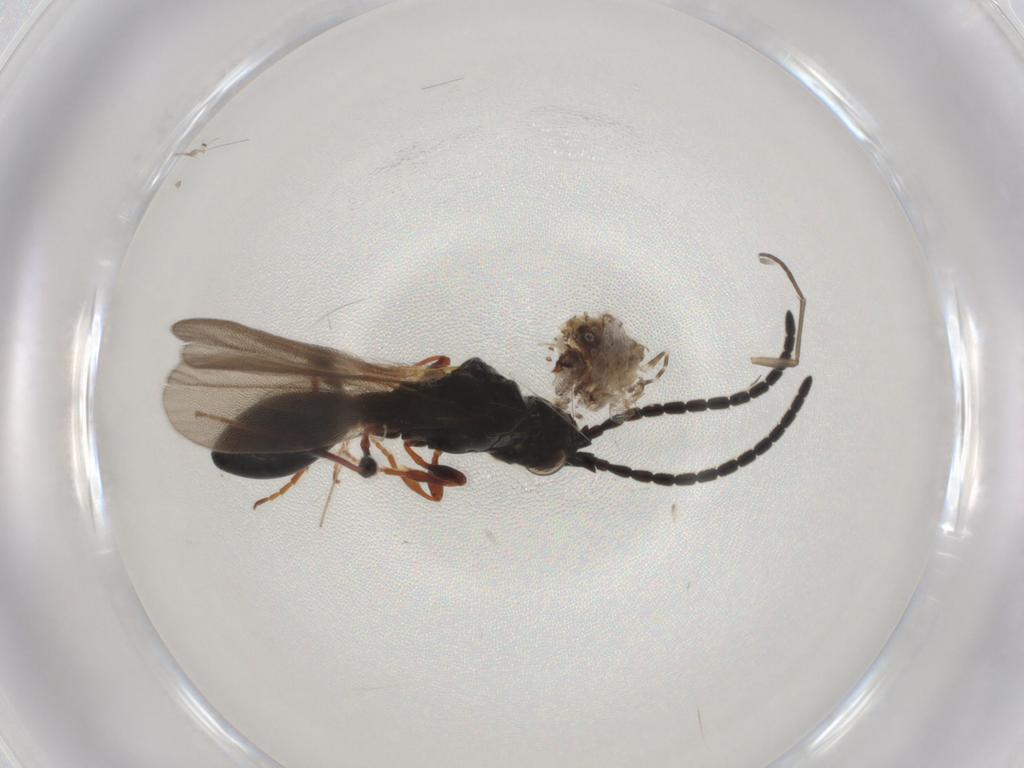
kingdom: Animalia
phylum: Arthropoda
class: Insecta
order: Hymenoptera
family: Diapriidae
